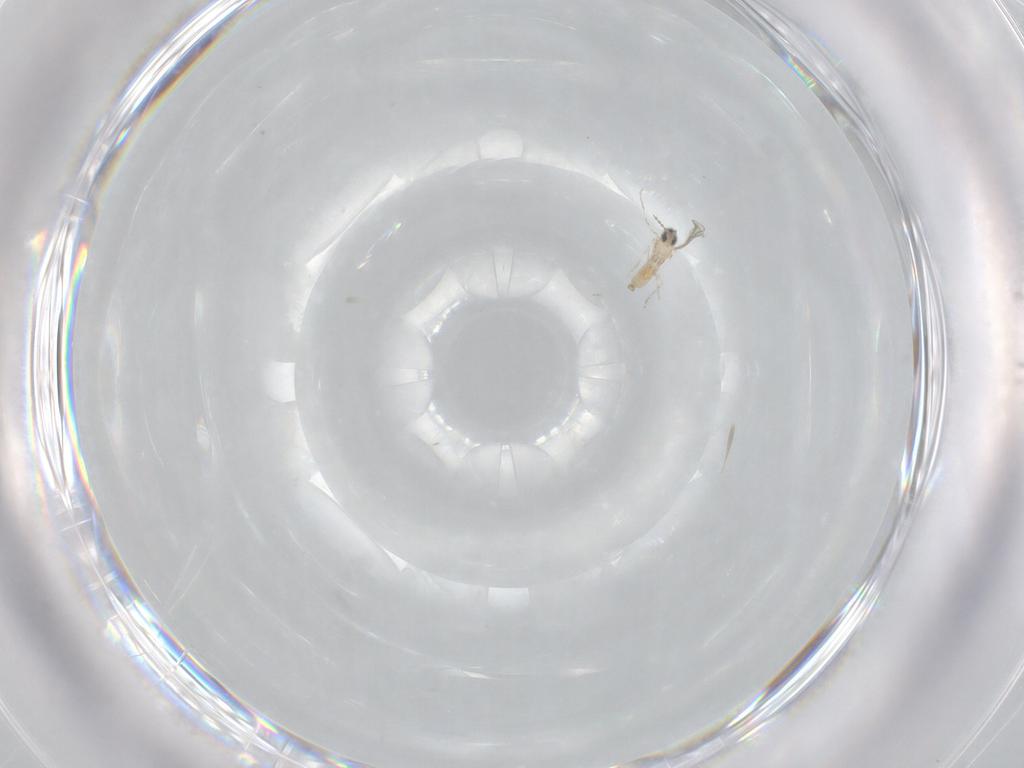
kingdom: Animalia
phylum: Arthropoda
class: Insecta
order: Diptera
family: Cecidomyiidae
